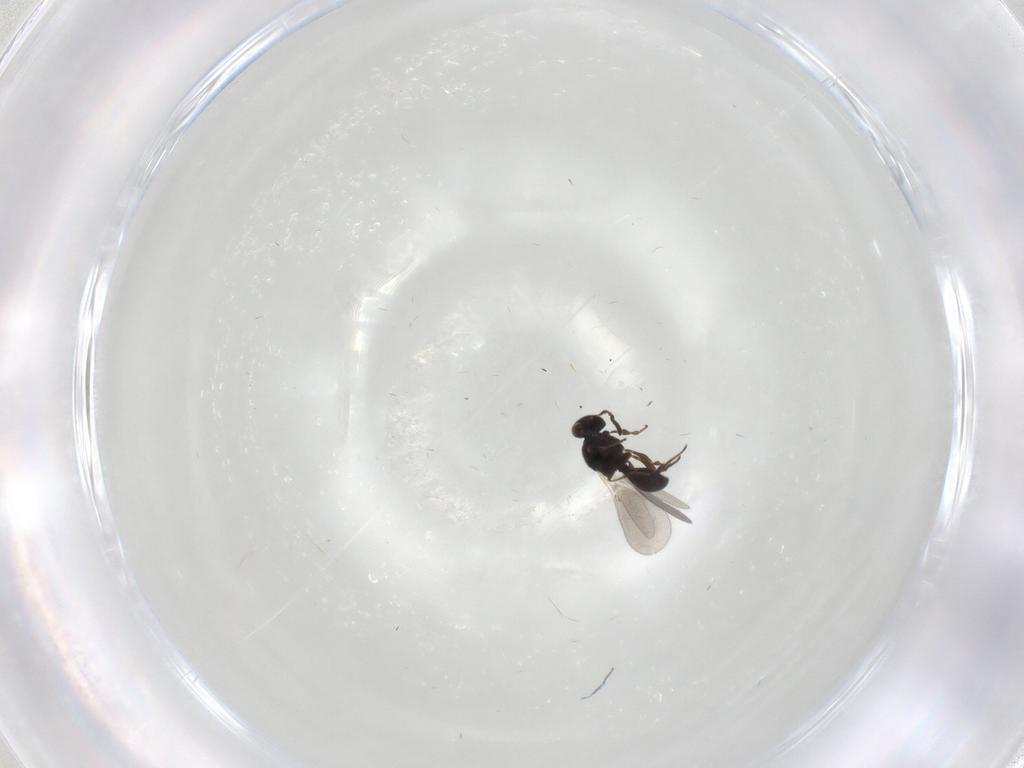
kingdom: Animalia
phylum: Arthropoda
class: Insecta
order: Hymenoptera
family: Platygastridae
